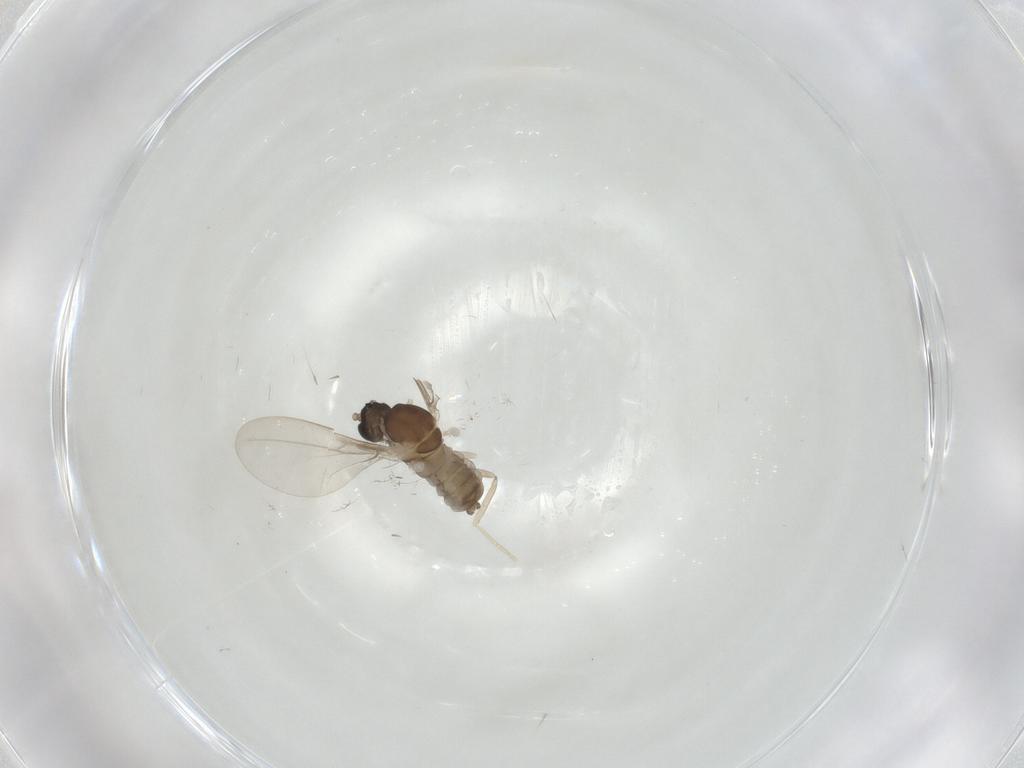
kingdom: Animalia
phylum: Arthropoda
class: Insecta
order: Diptera
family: Cecidomyiidae
